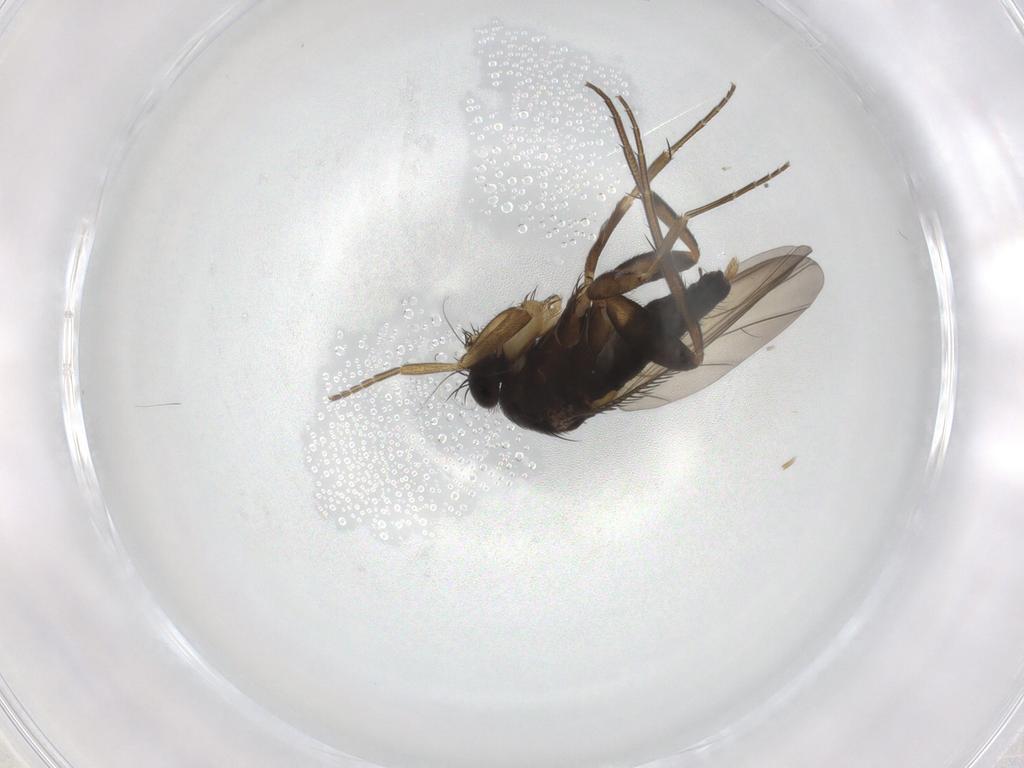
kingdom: Animalia
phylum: Arthropoda
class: Insecta
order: Diptera
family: Phoridae
